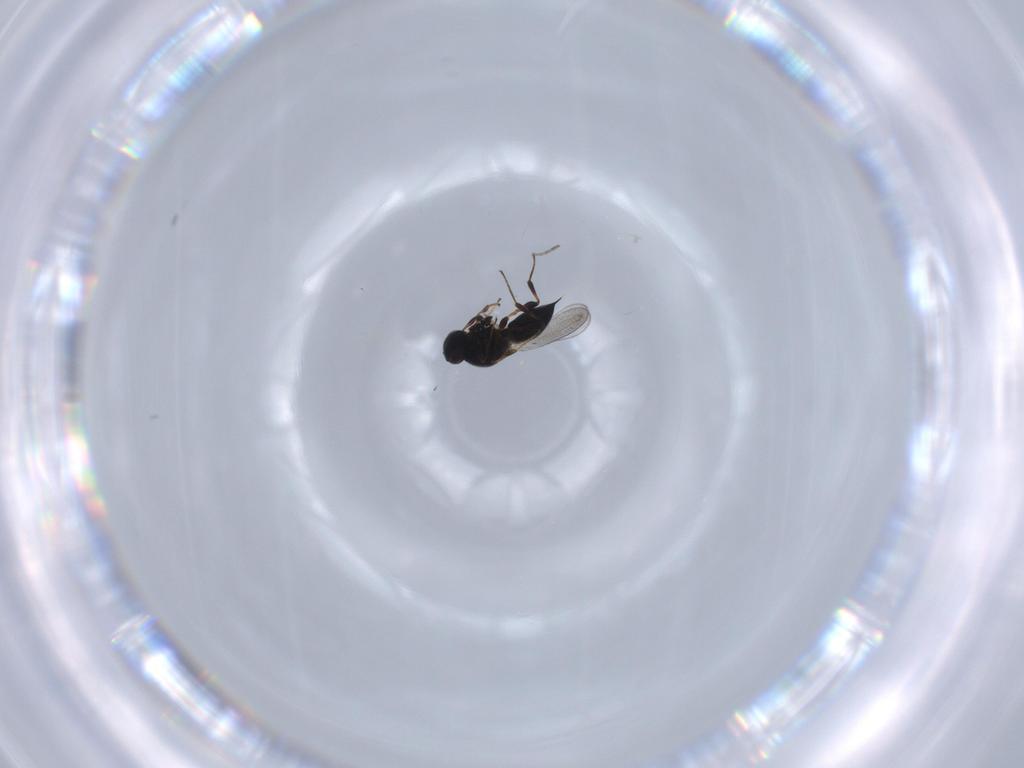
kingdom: Animalia
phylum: Arthropoda
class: Insecta
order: Hymenoptera
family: Platygastridae
